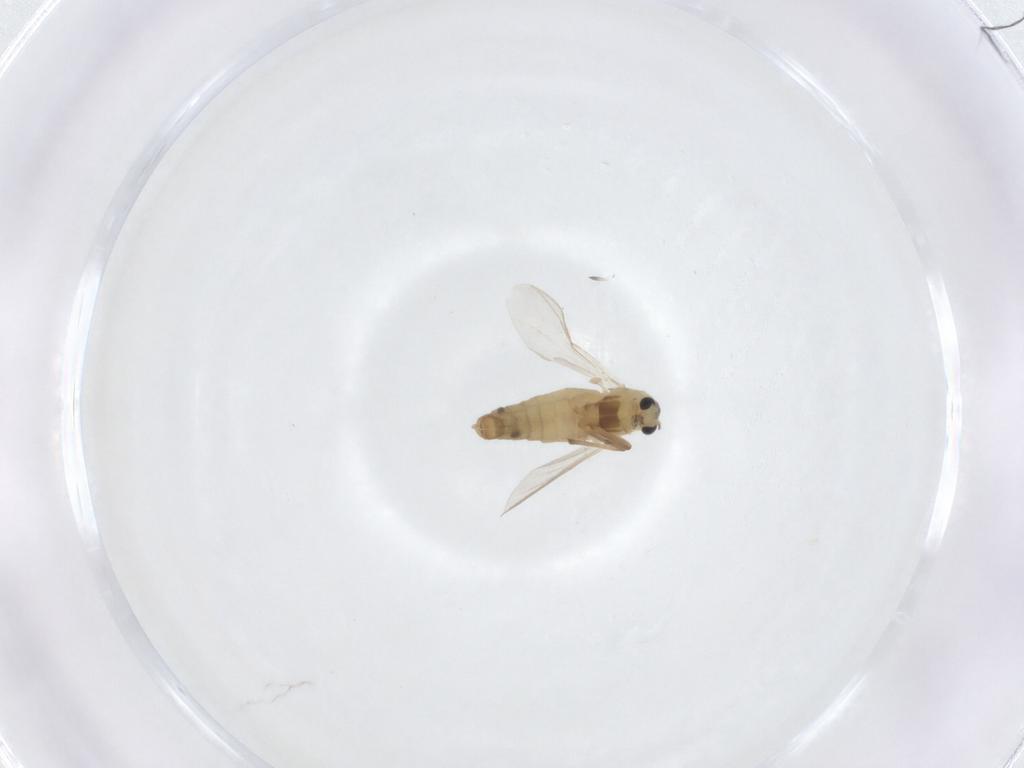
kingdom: Animalia
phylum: Arthropoda
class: Insecta
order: Diptera
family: Chironomidae
